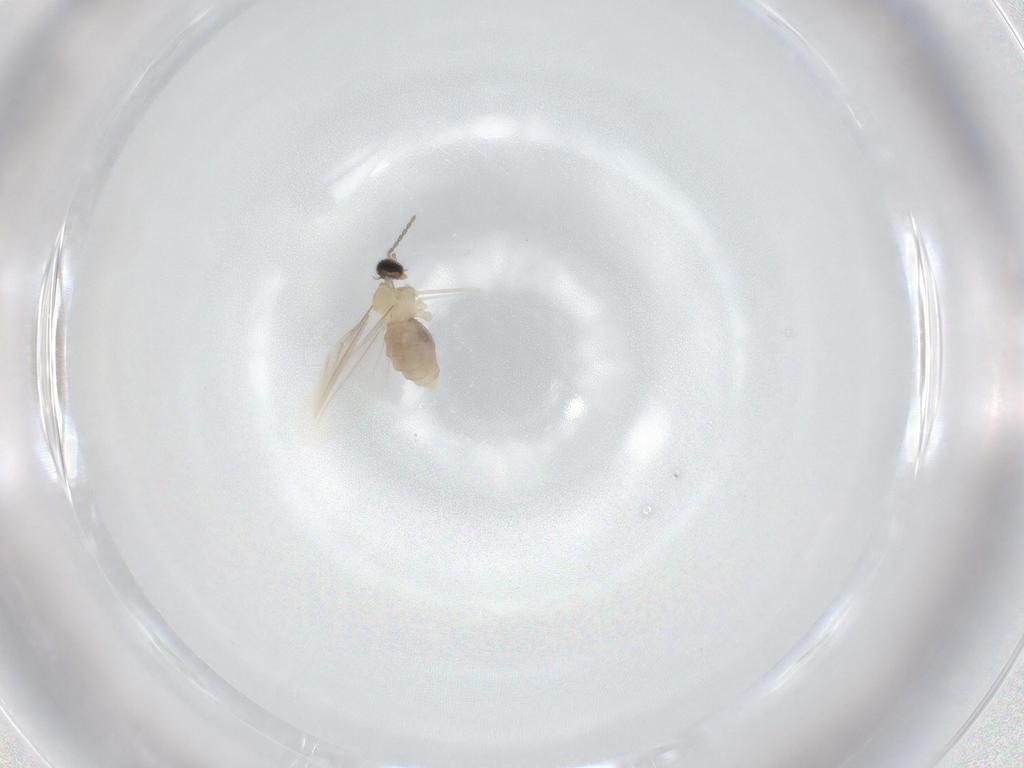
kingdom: Animalia
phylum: Arthropoda
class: Insecta
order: Diptera
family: Cecidomyiidae
